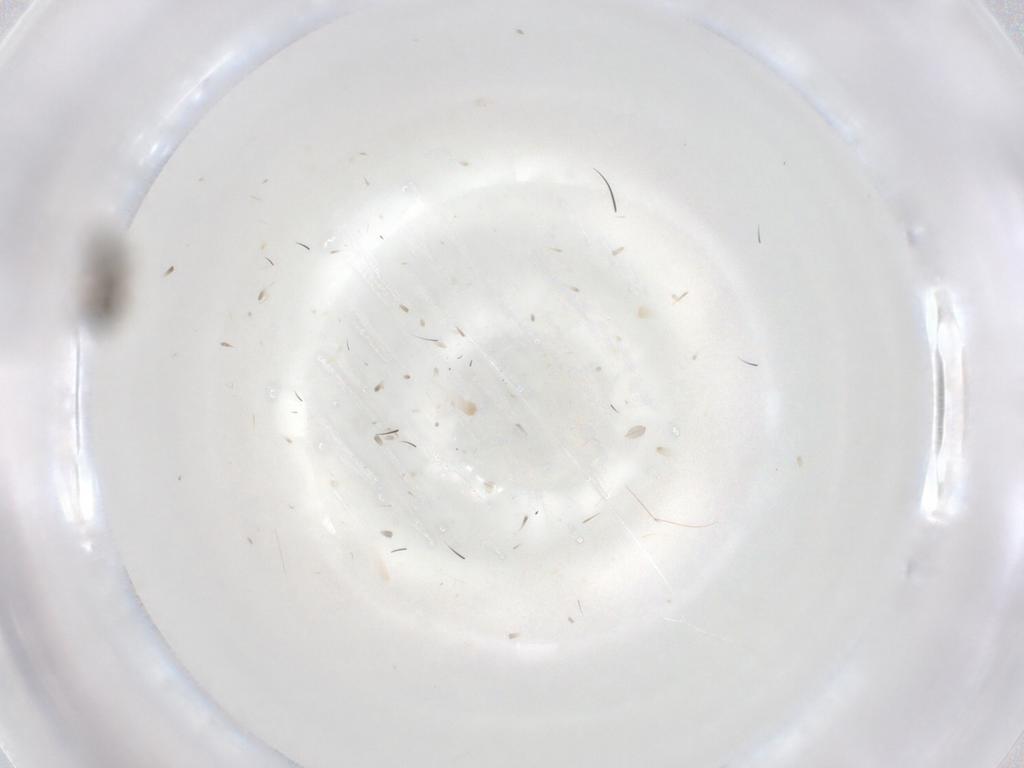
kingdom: Animalia
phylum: Arthropoda
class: Insecta
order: Hymenoptera
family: Platygastridae
